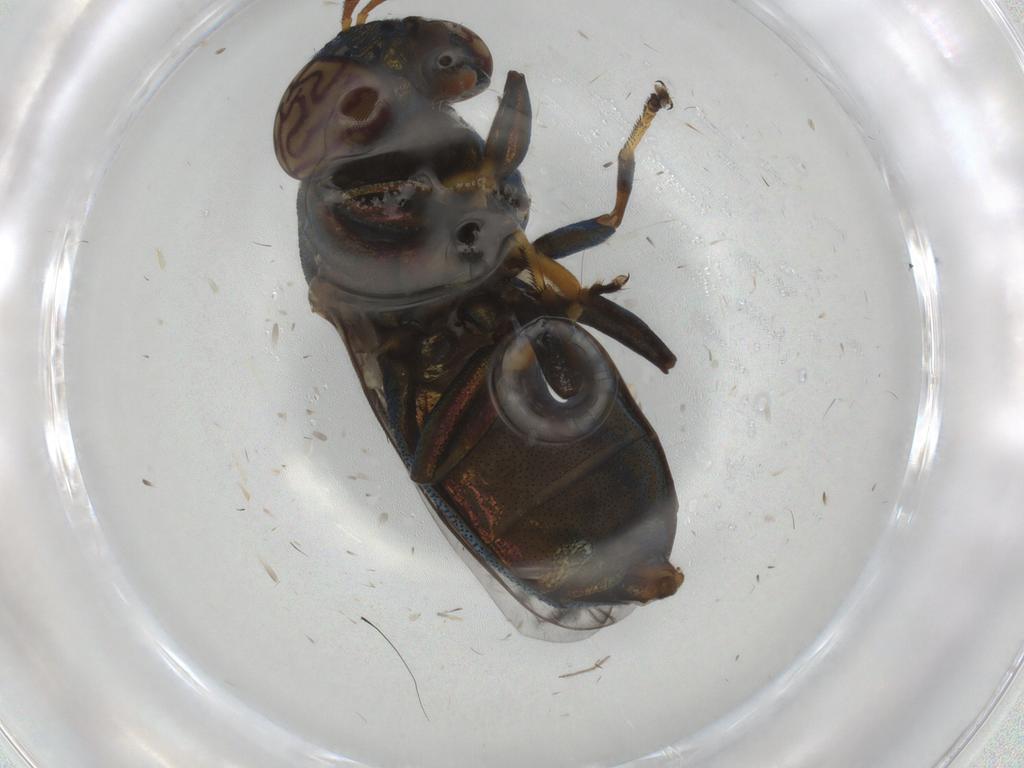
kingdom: Animalia
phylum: Arthropoda
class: Insecta
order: Diptera
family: Psychodidae
